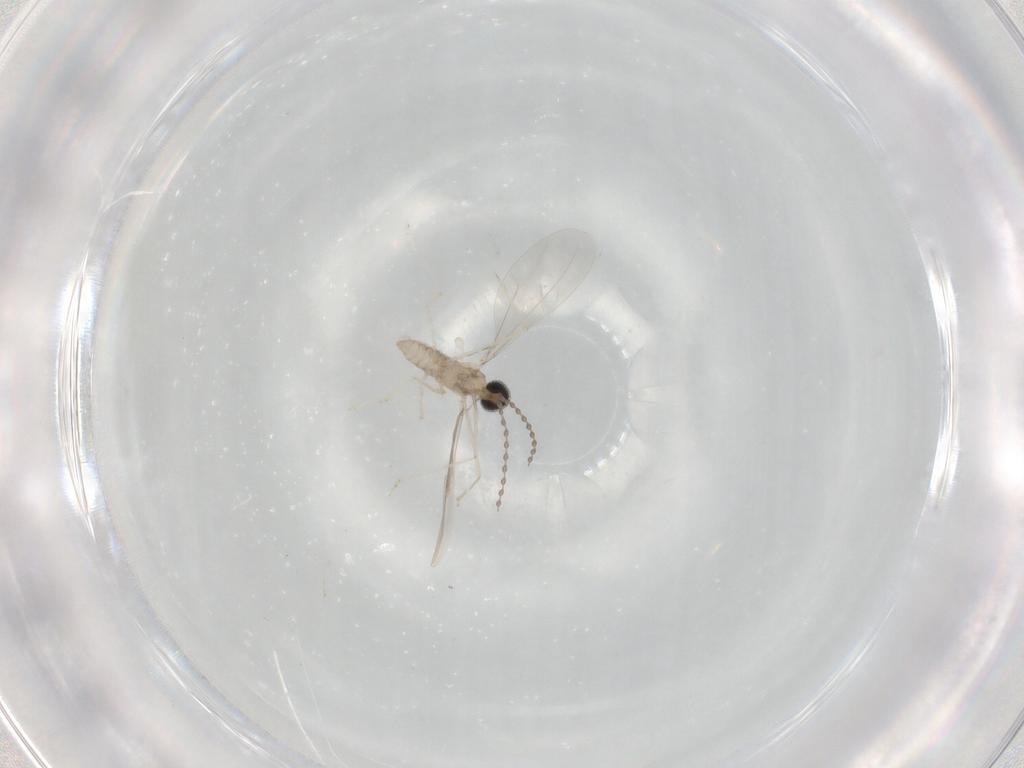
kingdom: Animalia
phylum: Arthropoda
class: Insecta
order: Diptera
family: Cecidomyiidae
